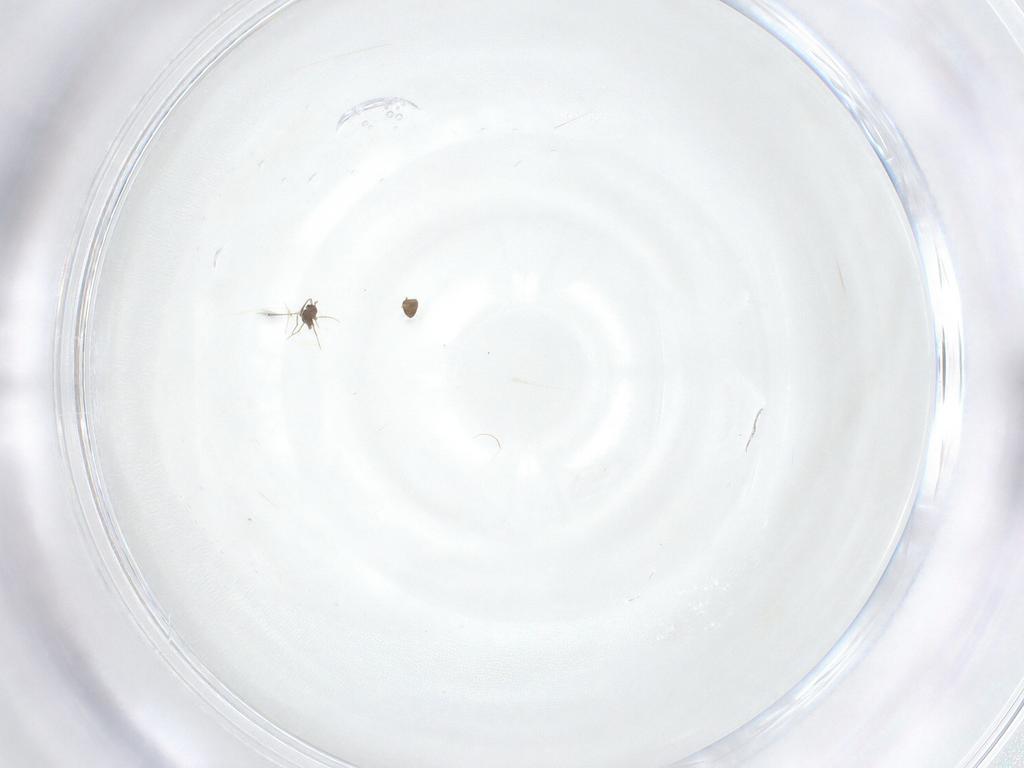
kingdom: Animalia
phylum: Arthropoda
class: Insecta
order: Hymenoptera
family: Mymaridae
